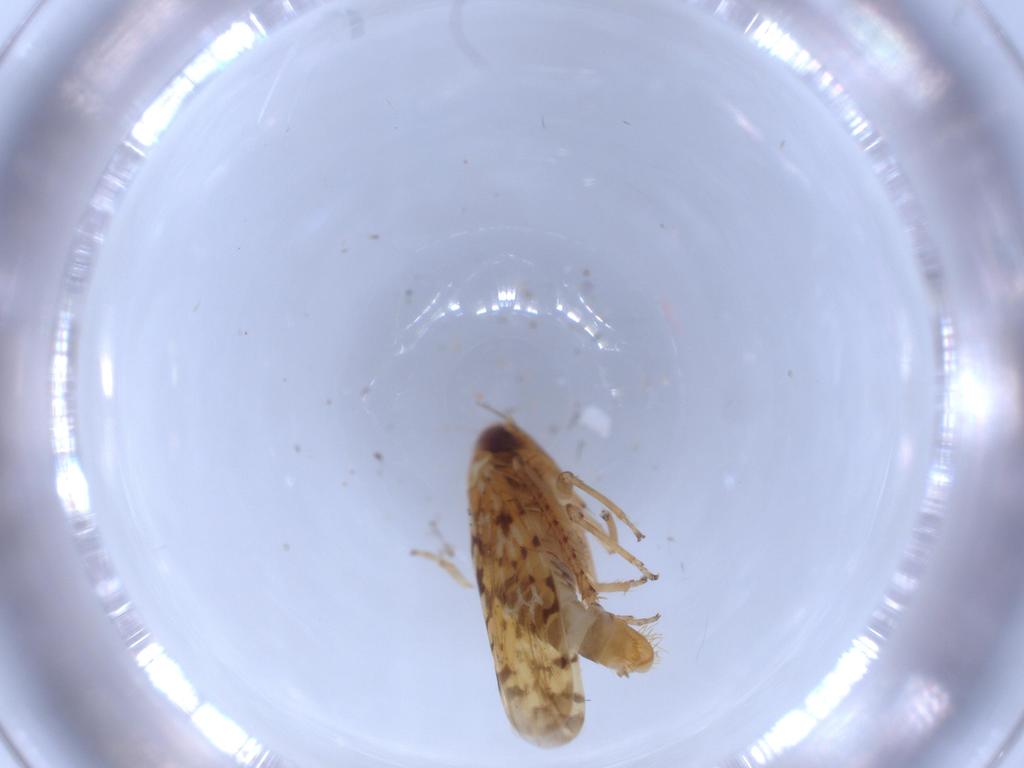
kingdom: Animalia
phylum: Arthropoda
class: Insecta
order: Hemiptera
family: Cicadellidae
